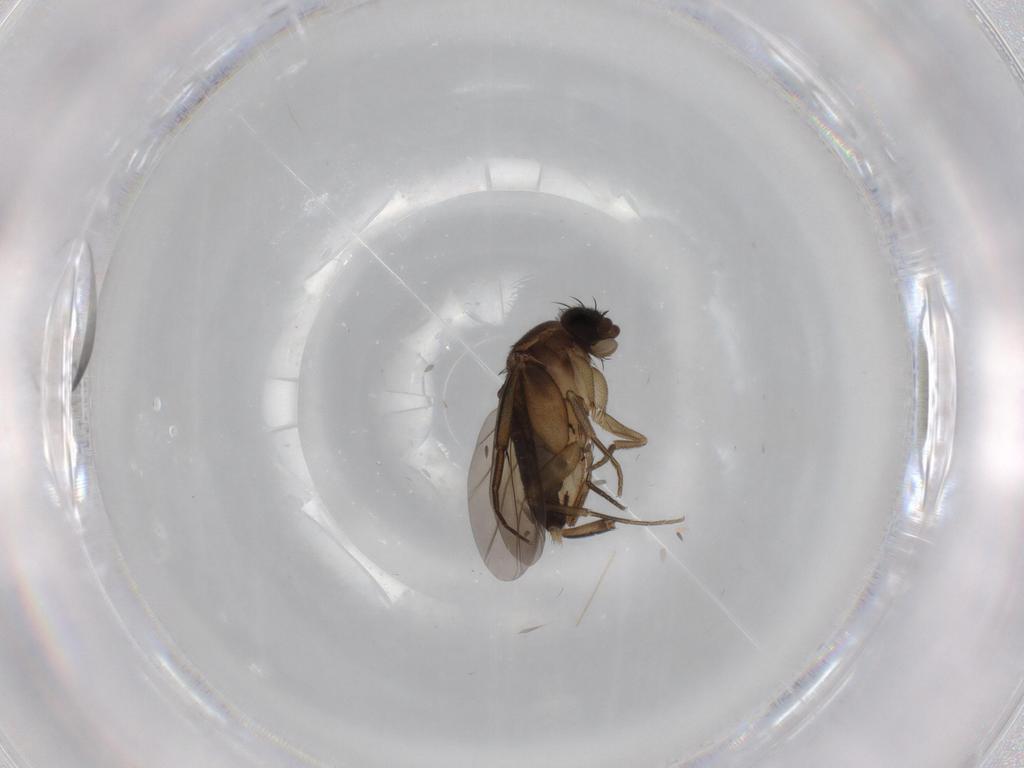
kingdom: Animalia
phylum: Arthropoda
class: Insecta
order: Diptera
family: Phoridae
